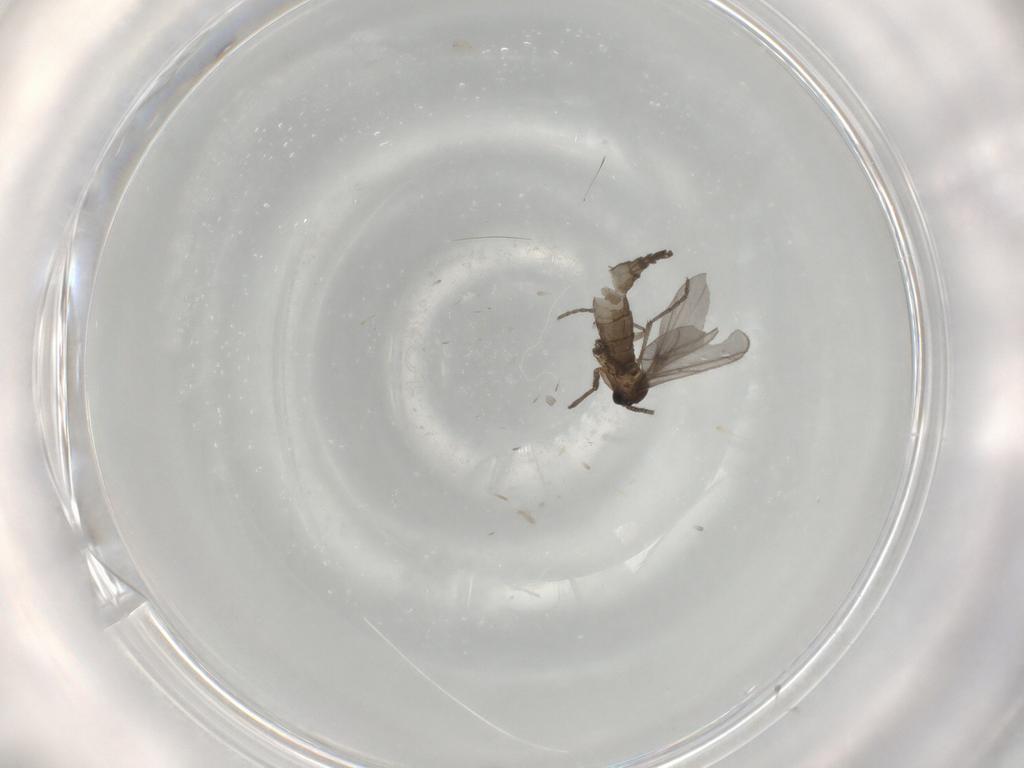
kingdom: Animalia
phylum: Arthropoda
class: Insecta
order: Diptera
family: Sciaridae
